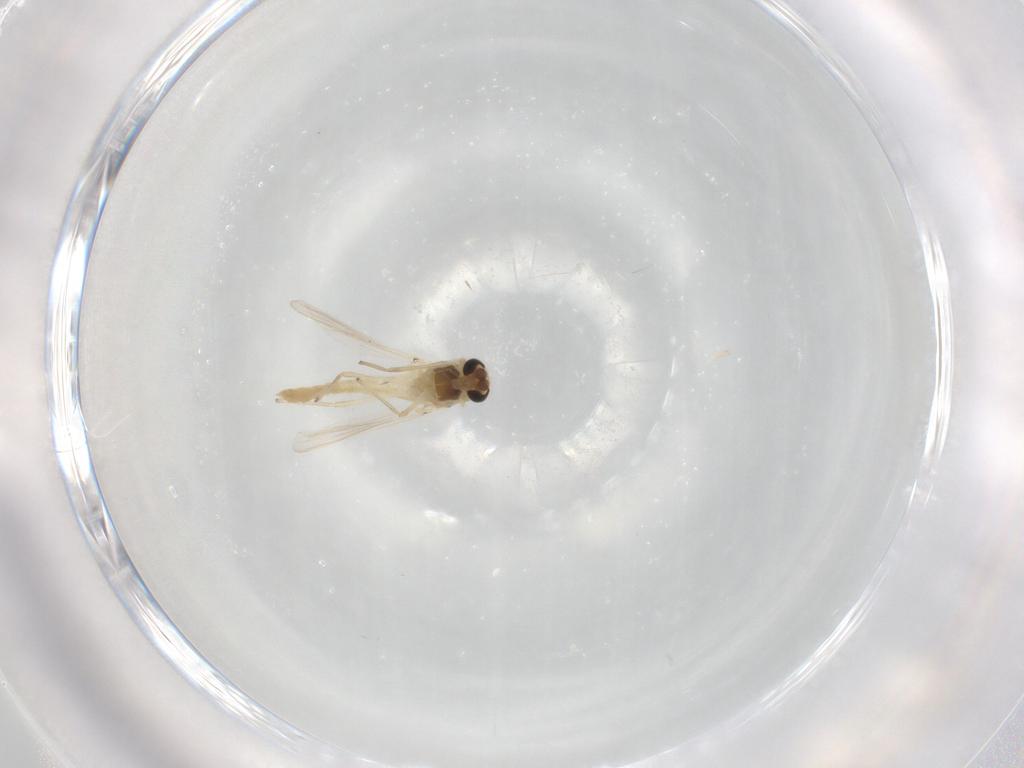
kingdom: Animalia
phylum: Arthropoda
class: Insecta
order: Diptera
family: Chironomidae
